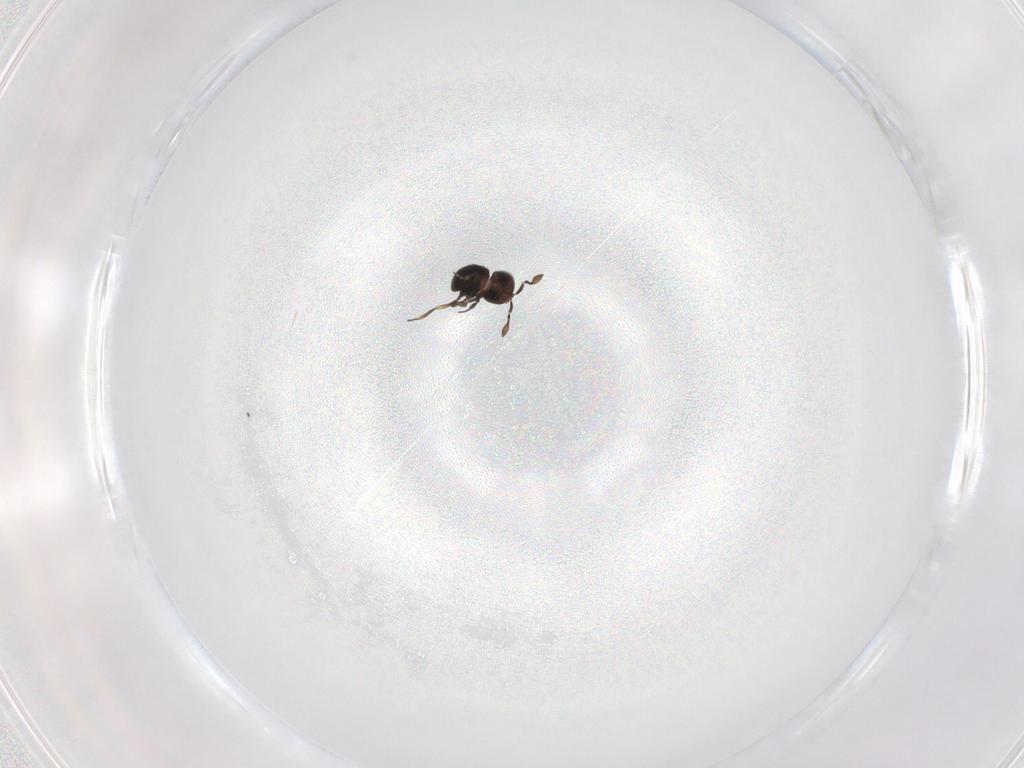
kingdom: Animalia
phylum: Arthropoda
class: Insecta
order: Hymenoptera
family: Scelionidae
